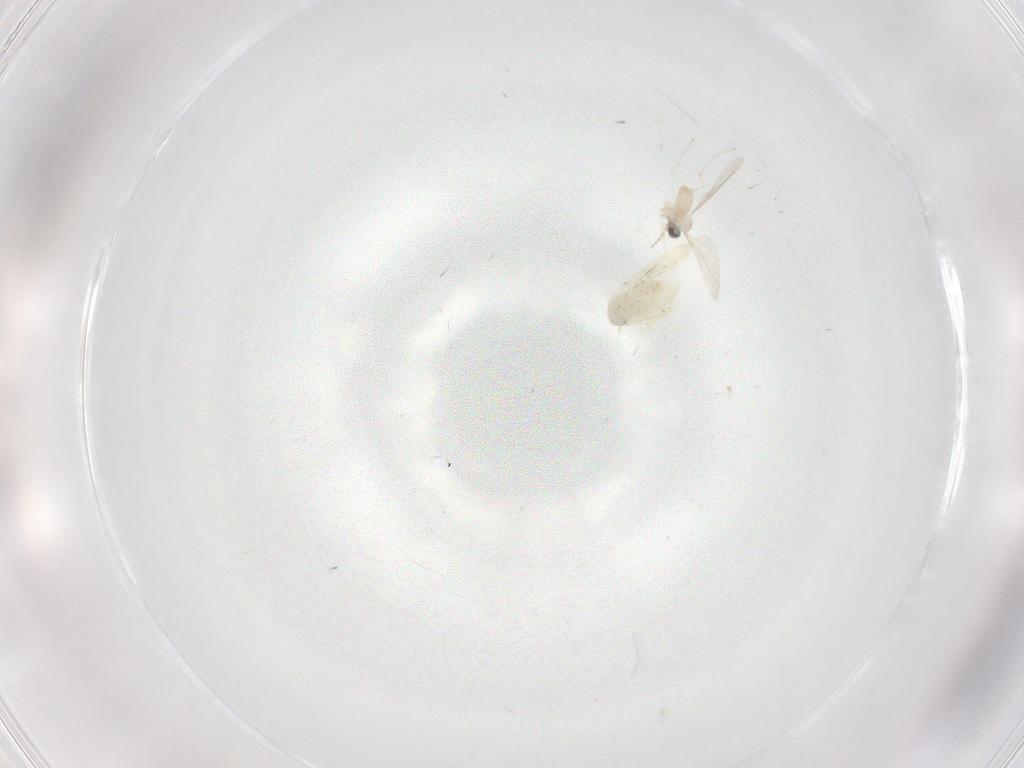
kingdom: Animalia
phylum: Arthropoda
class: Insecta
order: Diptera
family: Cecidomyiidae
